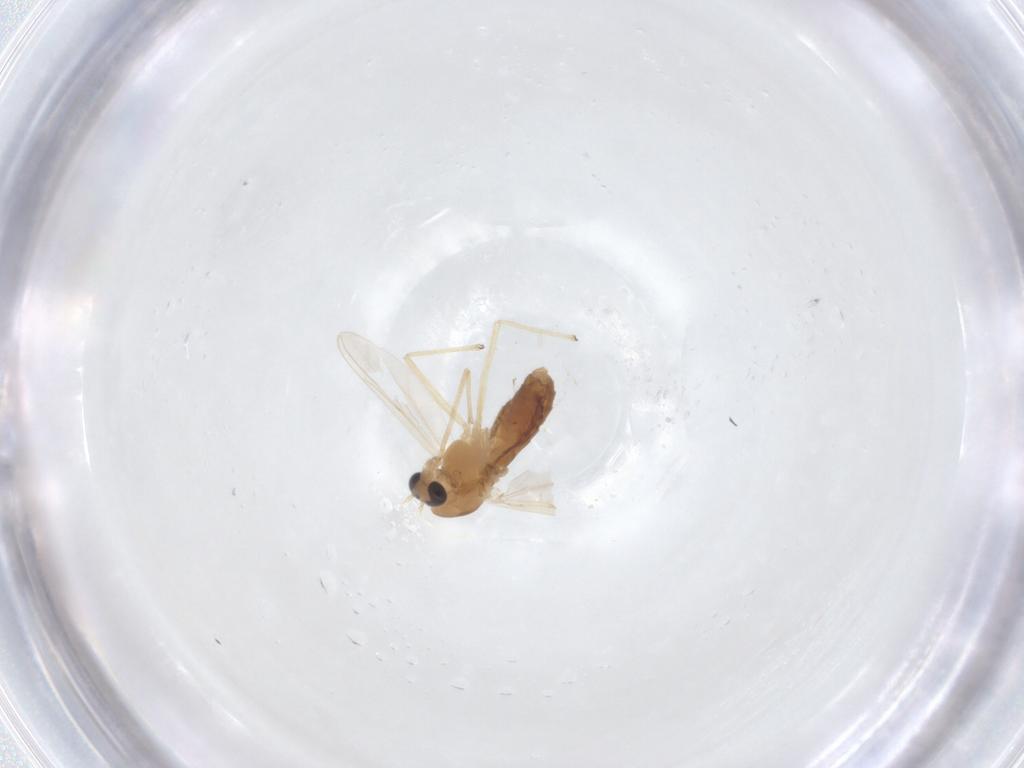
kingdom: Animalia
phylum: Arthropoda
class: Insecta
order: Diptera
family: Chironomidae
